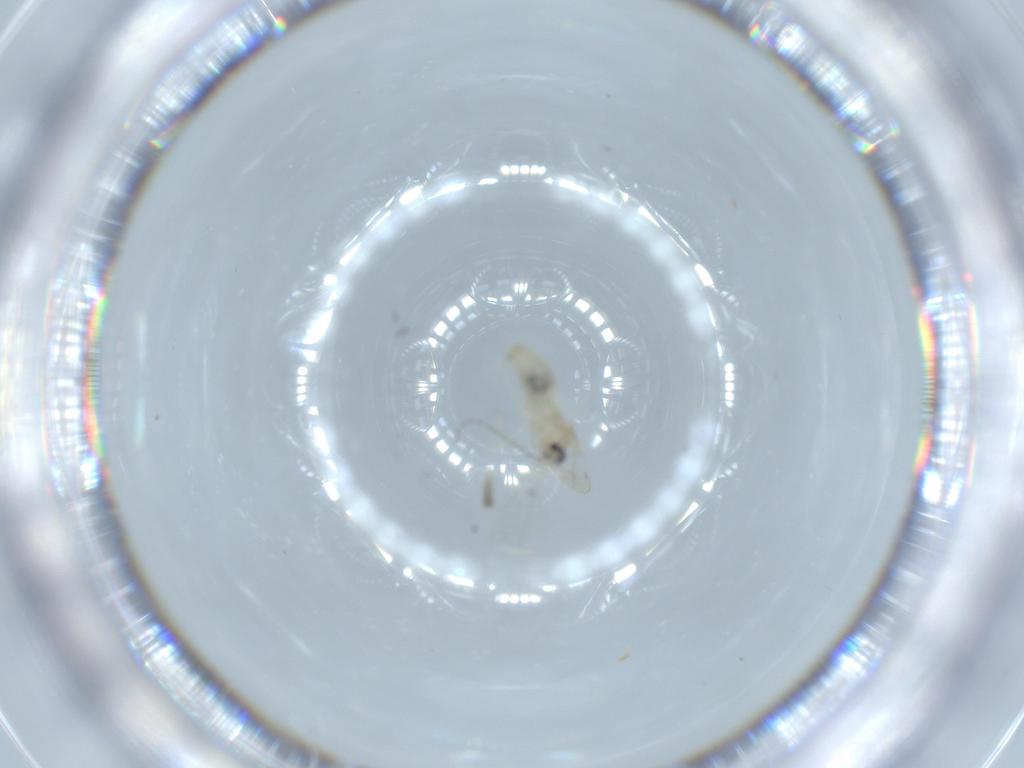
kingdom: Animalia
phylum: Arthropoda
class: Insecta
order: Diptera
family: Cecidomyiidae
